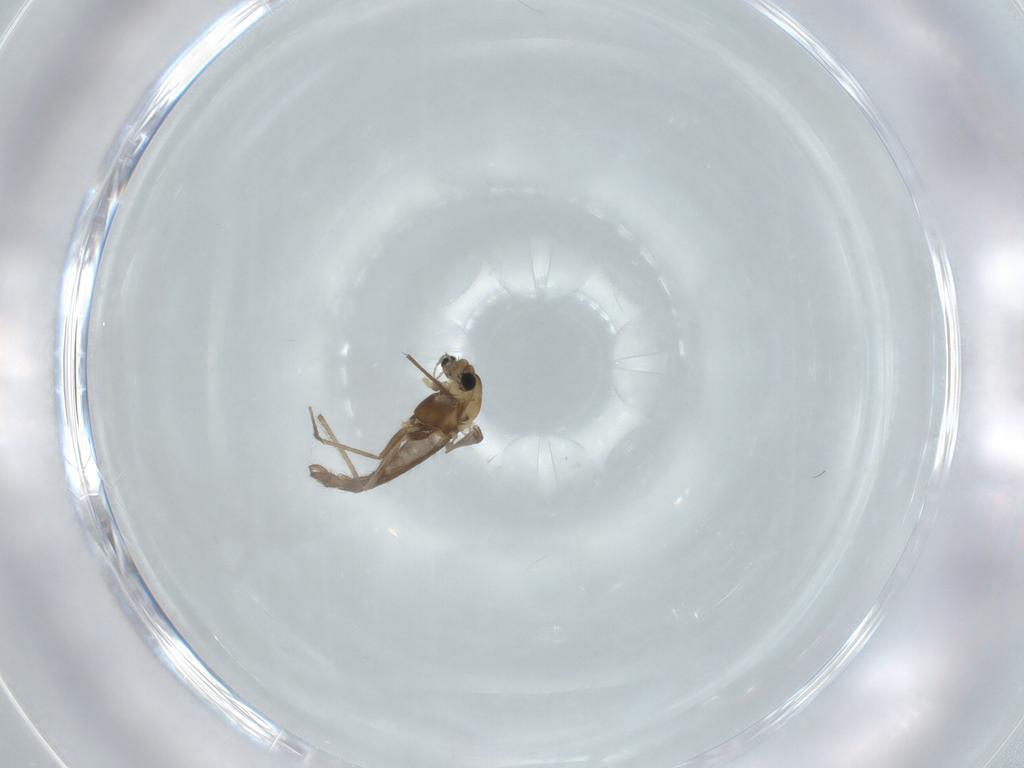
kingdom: Animalia
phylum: Arthropoda
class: Insecta
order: Diptera
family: Chironomidae
